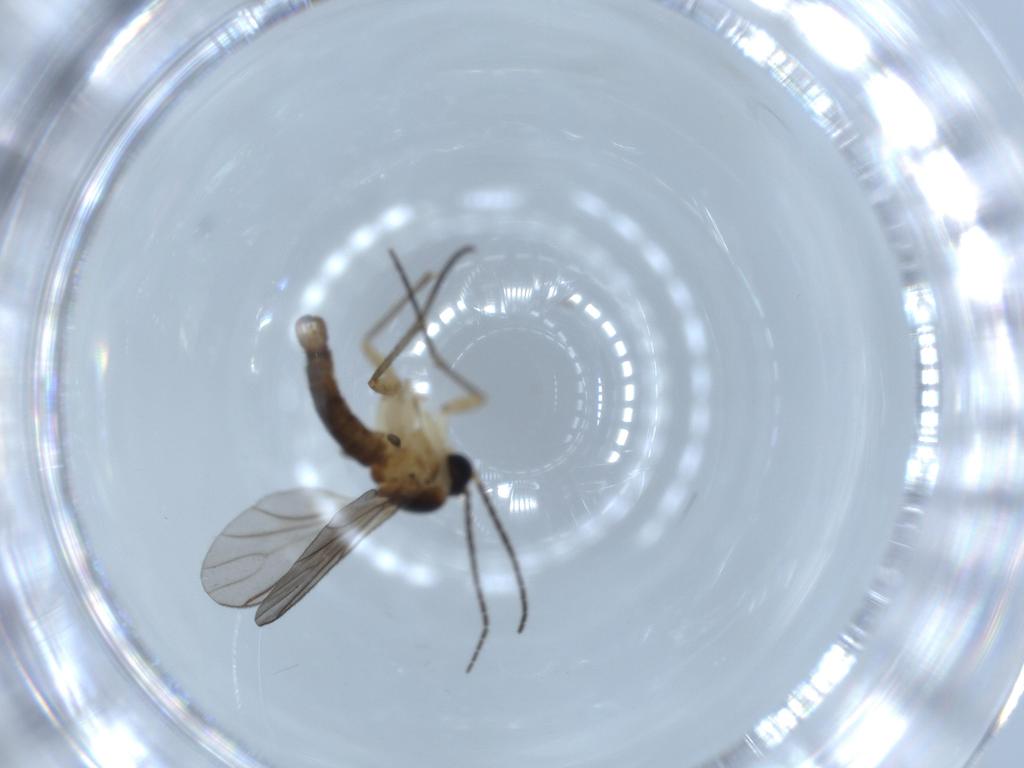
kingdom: Animalia
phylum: Arthropoda
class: Insecta
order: Diptera
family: Sciaridae
